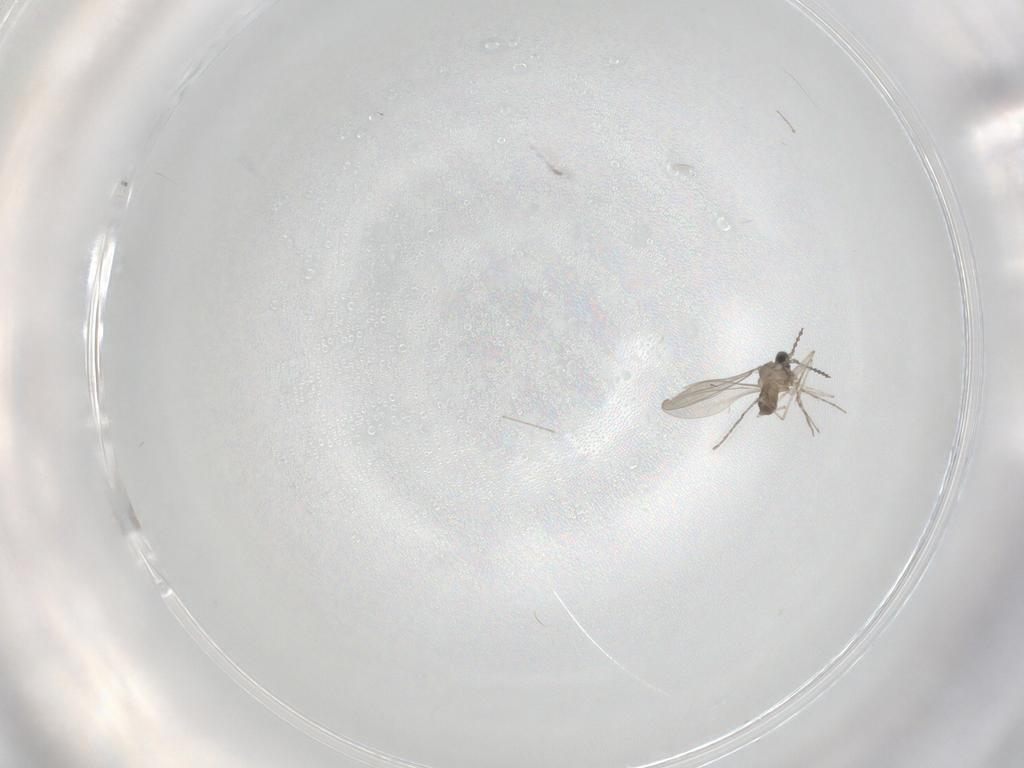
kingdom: Animalia
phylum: Arthropoda
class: Insecta
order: Diptera
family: Cecidomyiidae
